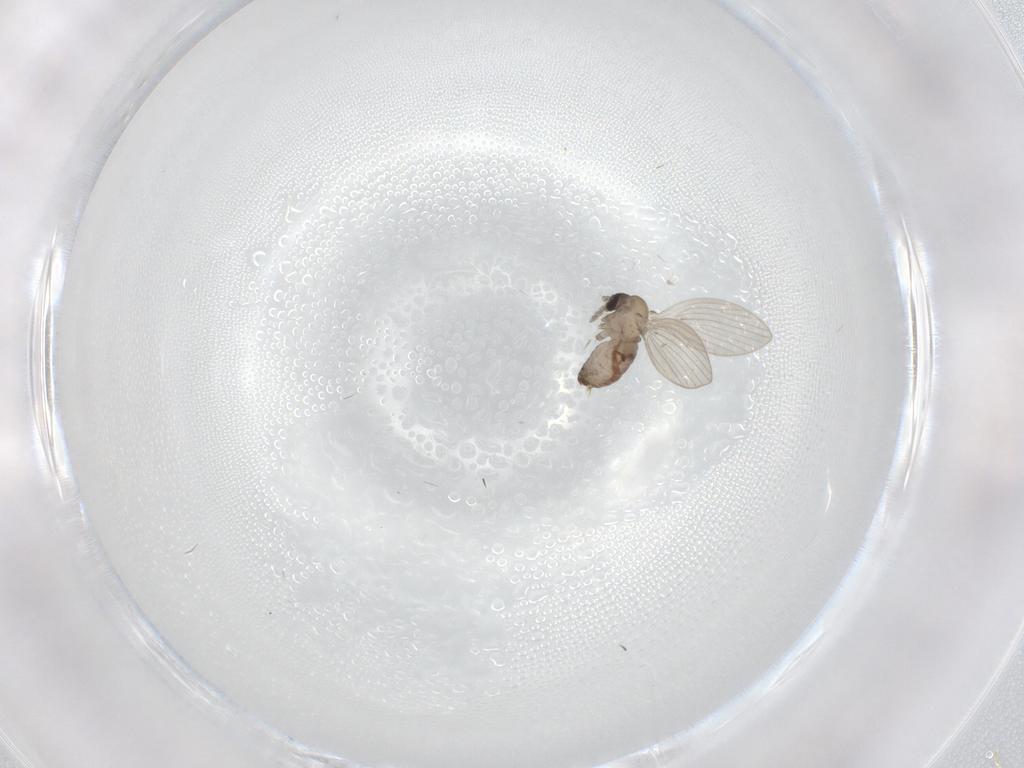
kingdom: Animalia
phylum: Arthropoda
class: Insecta
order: Diptera
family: Psychodidae
